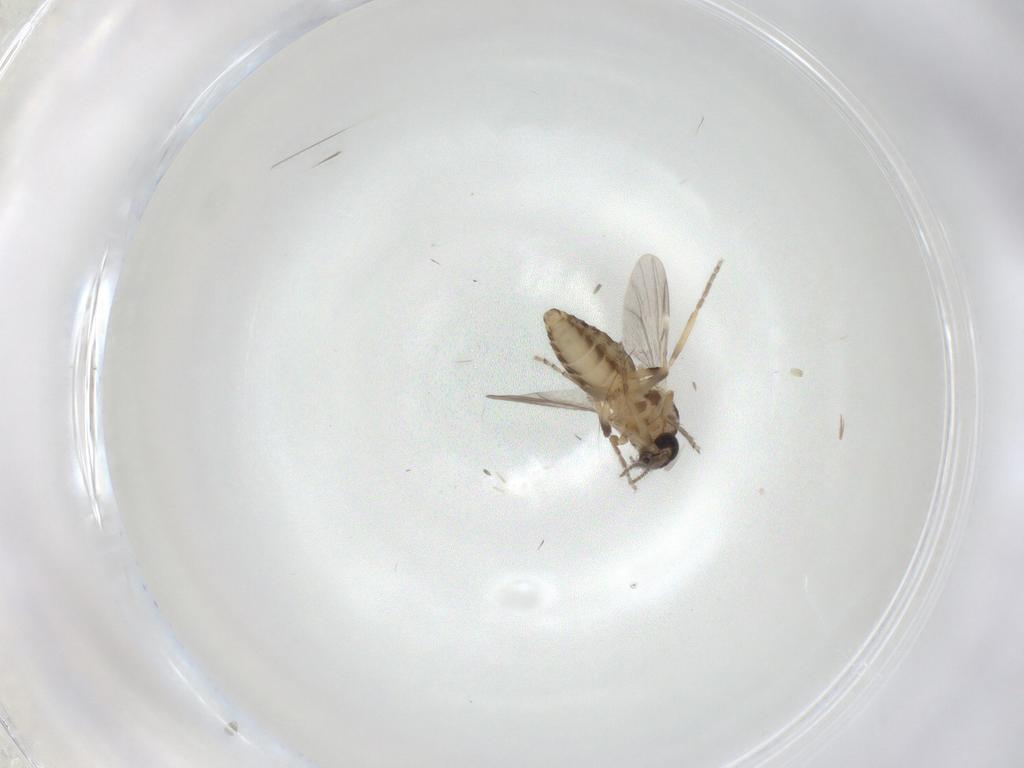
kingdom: Animalia
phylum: Arthropoda
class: Insecta
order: Diptera
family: Ceratopogonidae
